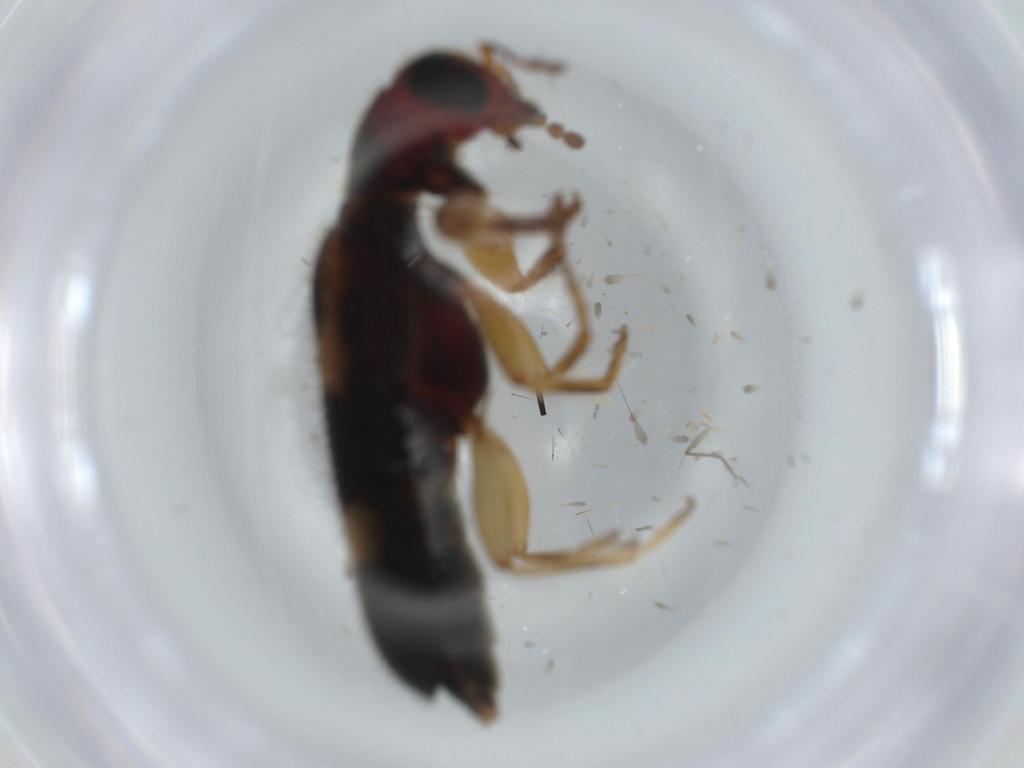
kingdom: Animalia
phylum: Arthropoda
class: Insecta
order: Coleoptera
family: Cleridae
